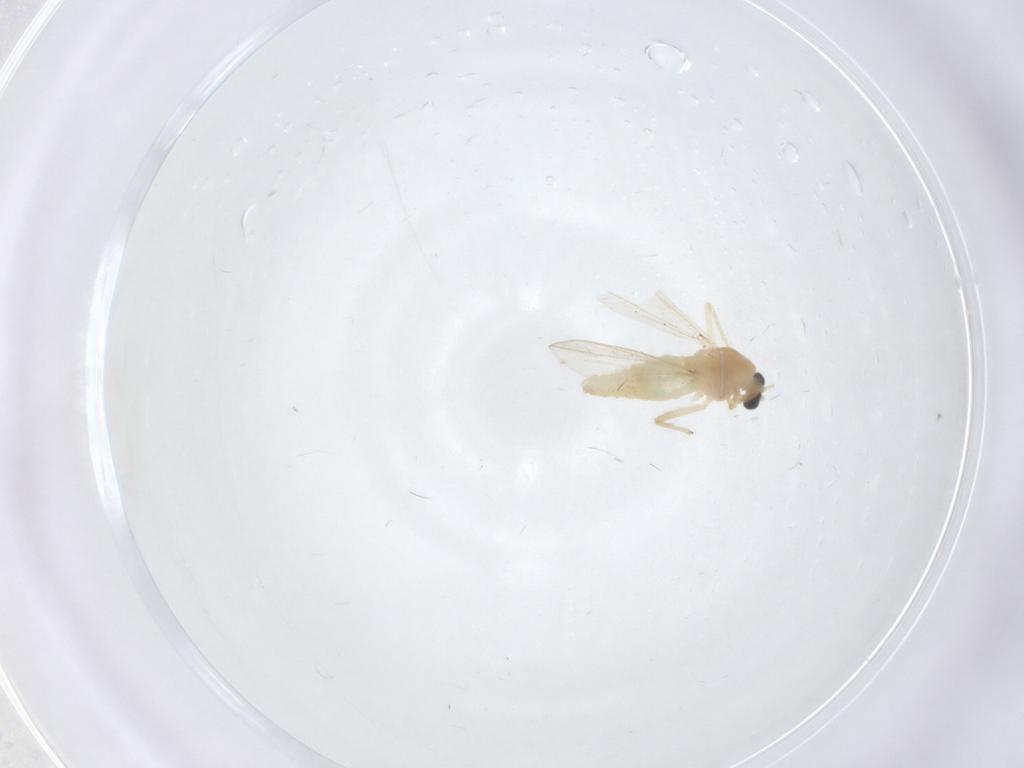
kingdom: Animalia
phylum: Arthropoda
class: Insecta
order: Diptera
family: Chironomidae
